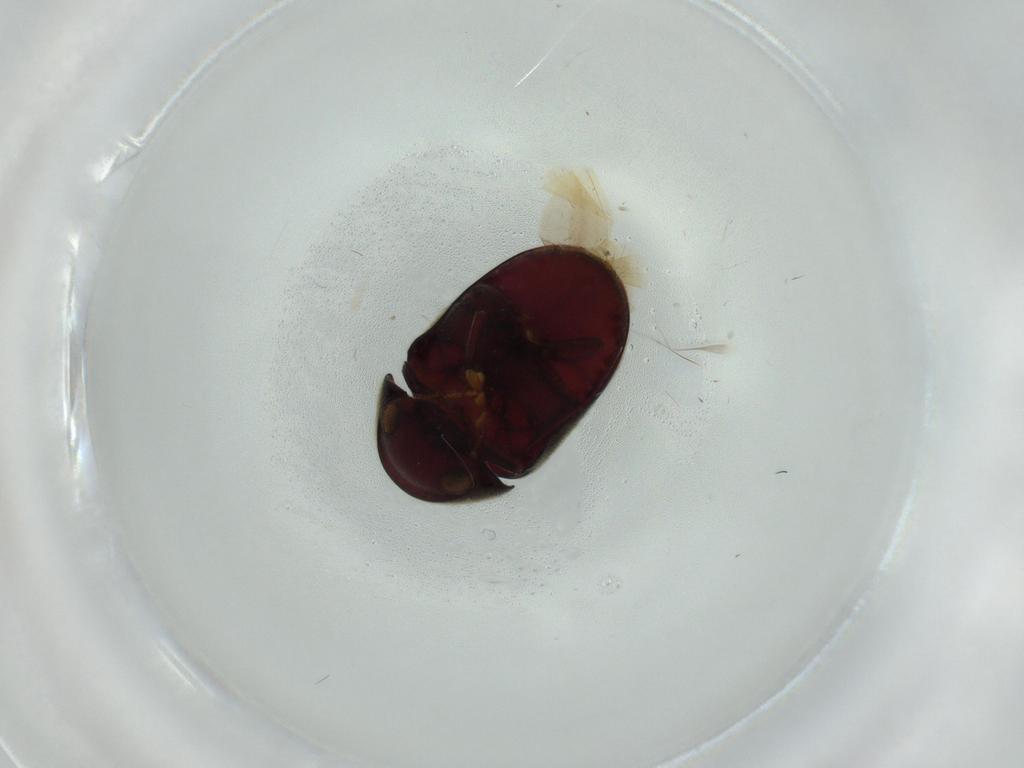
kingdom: Animalia
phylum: Arthropoda
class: Insecta
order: Coleoptera
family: Ptinidae
